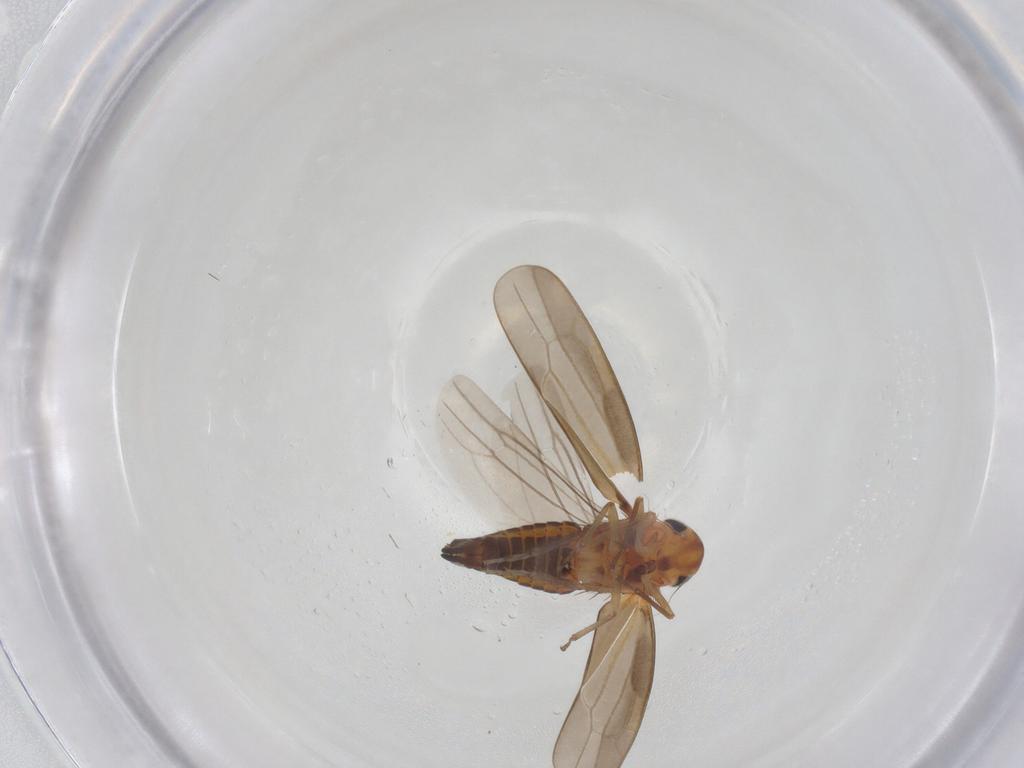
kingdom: Animalia
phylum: Arthropoda
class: Insecta
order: Hemiptera
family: Cicadellidae
